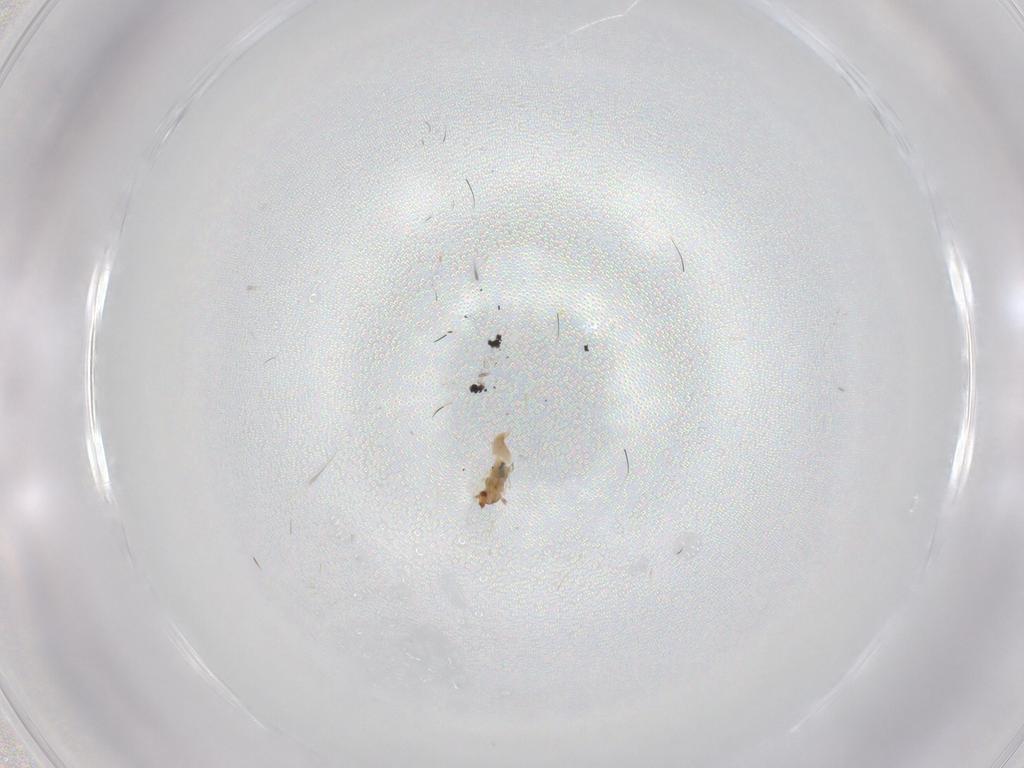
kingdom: Animalia
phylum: Arthropoda
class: Insecta
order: Diptera
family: Cecidomyiidae
